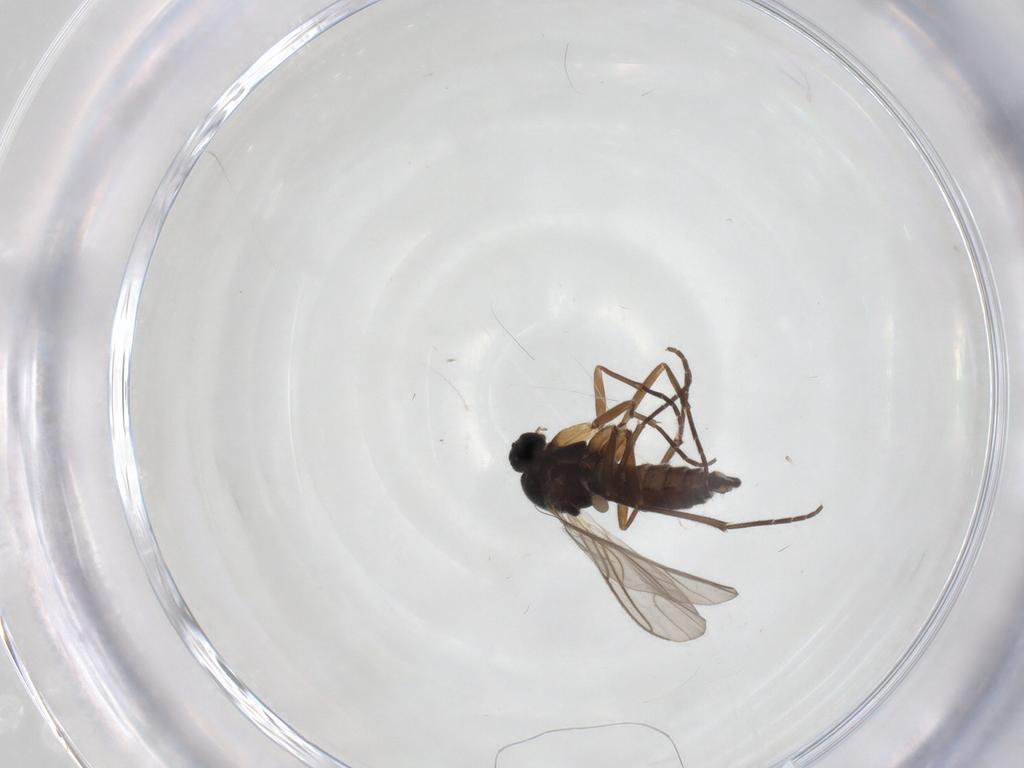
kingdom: Animalia
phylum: Arthropoda
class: Insecta
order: Diptera
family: Sciaridae
